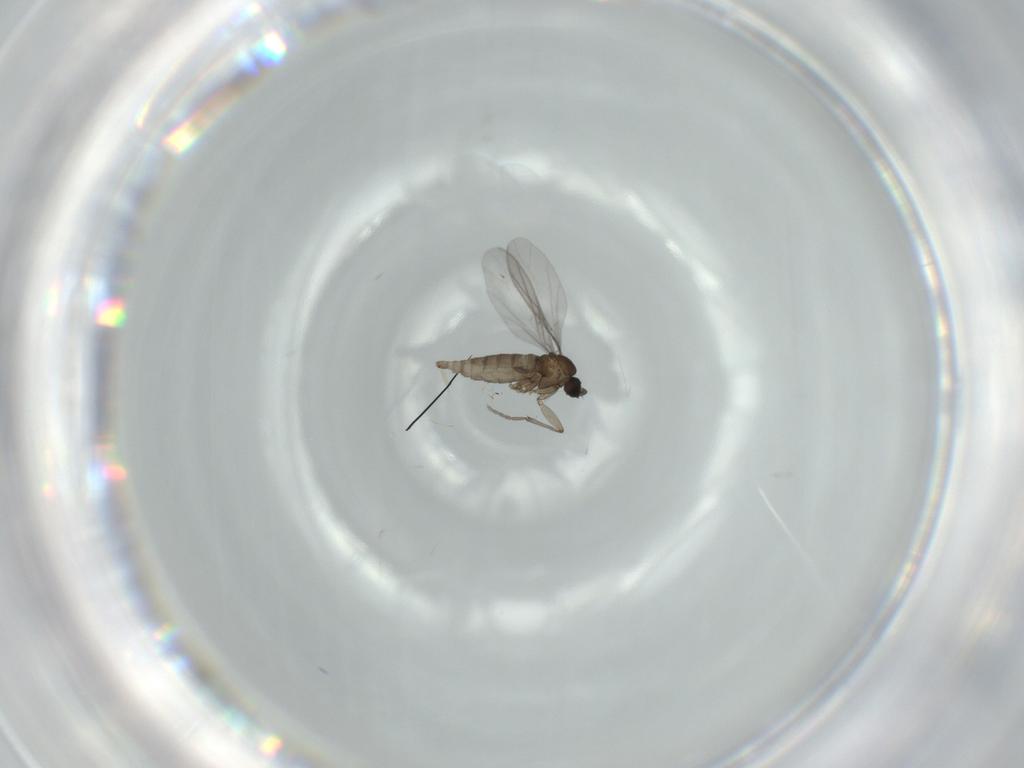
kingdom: Animalia
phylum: Arthropoda
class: Insecta
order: Diptera
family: Sciaridae
